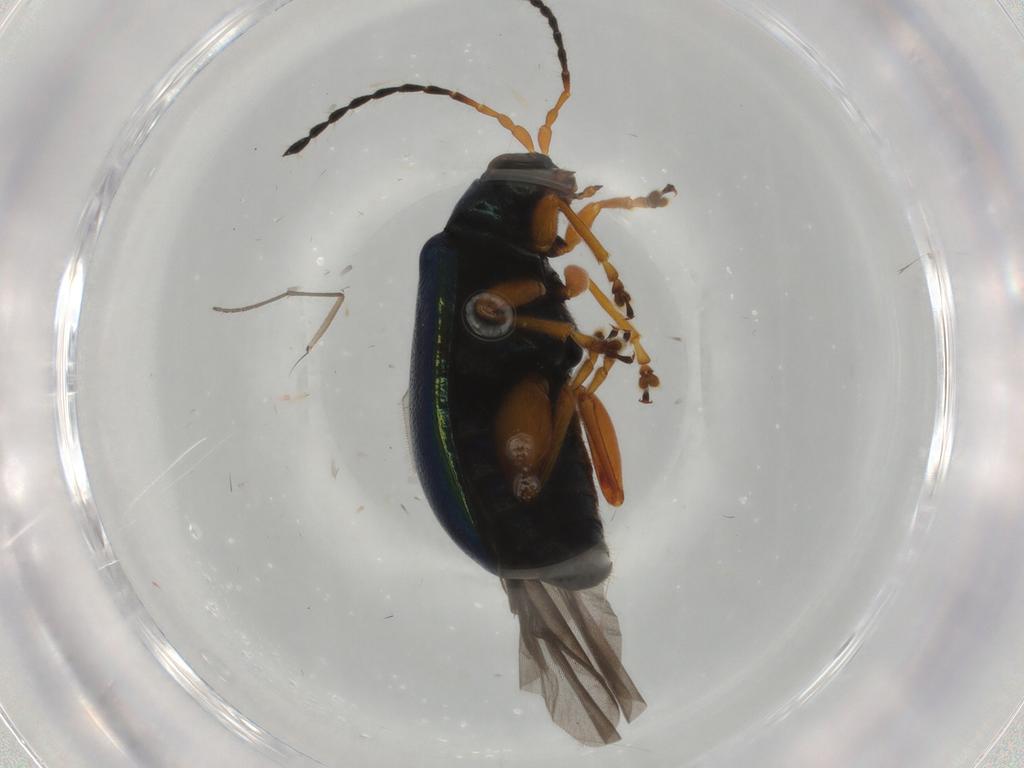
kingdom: Animalia
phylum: Arthropoda
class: Insecta
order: Coleoptera
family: Chrysomelidae
